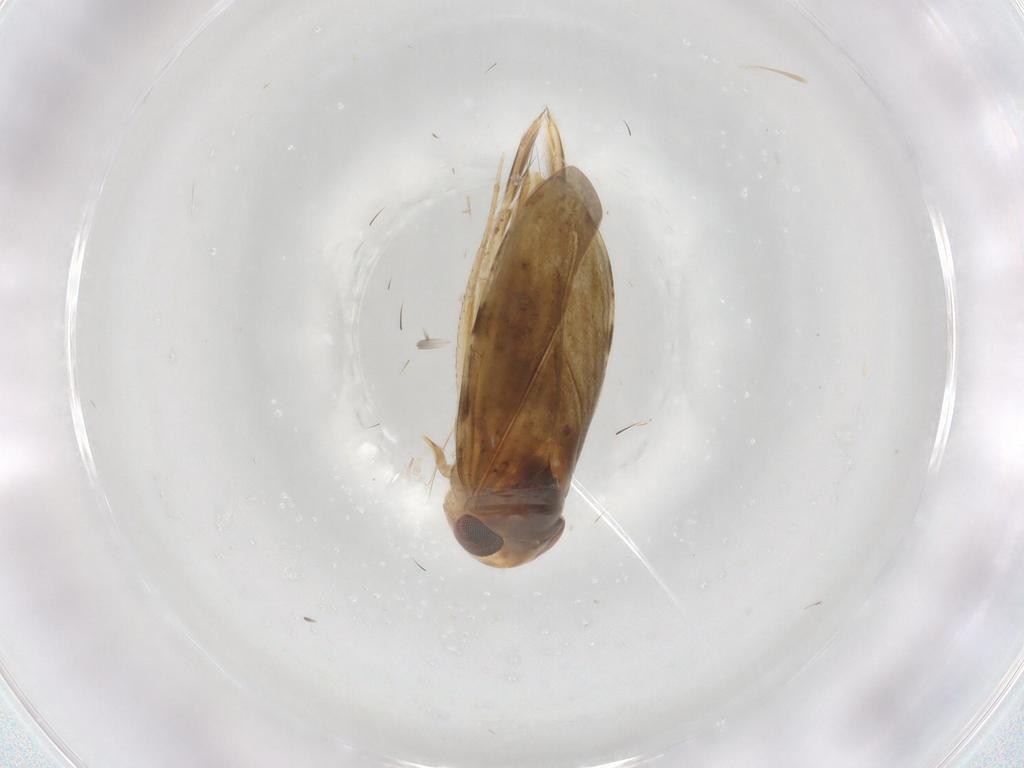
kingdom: Animalia
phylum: Arthropoda
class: Insecta
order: Hemiptera
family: Corixidae
